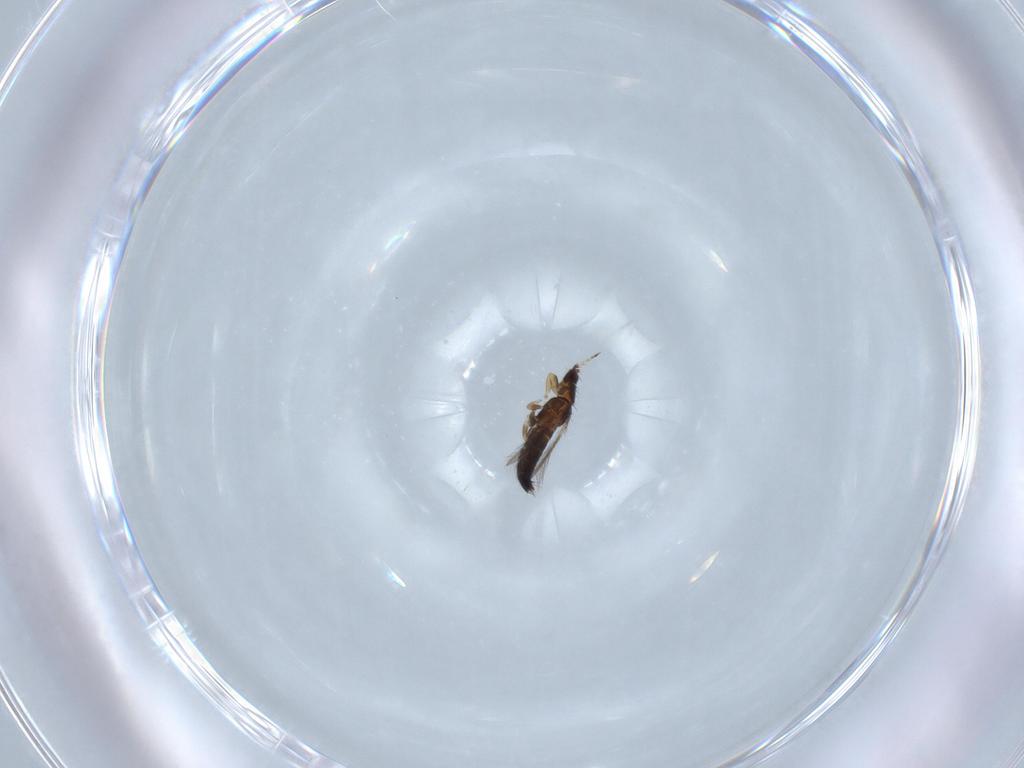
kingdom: Animalia
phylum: Arthropoda
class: Insecta
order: Thysanoptera
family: Thripidae
